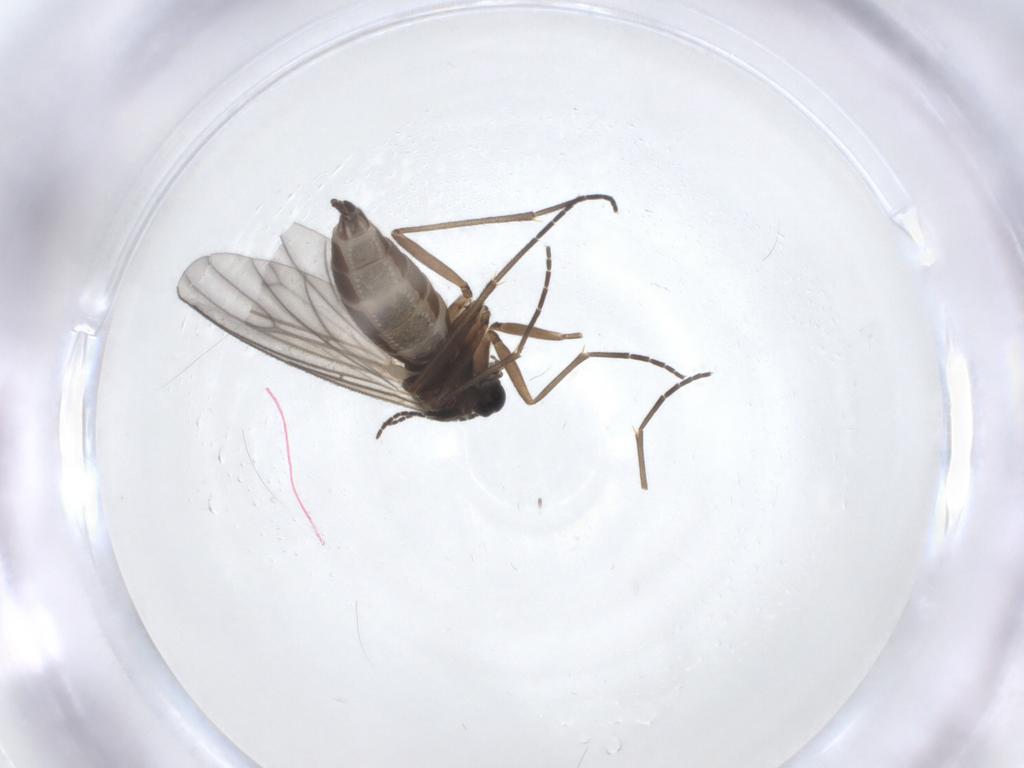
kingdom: Animalia
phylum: Arthropoda
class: Insecta
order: Diptera
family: Sciaridae
